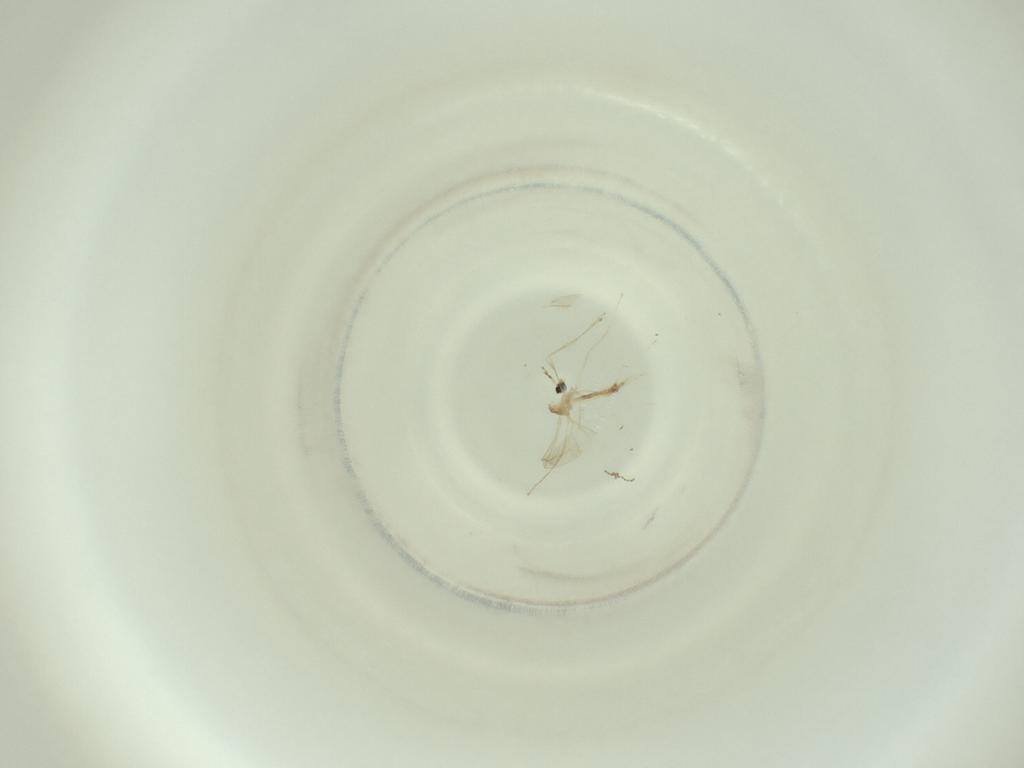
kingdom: Animalia
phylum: Arthropoda
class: Insecta
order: Diptera
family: Cecidomyiidae
